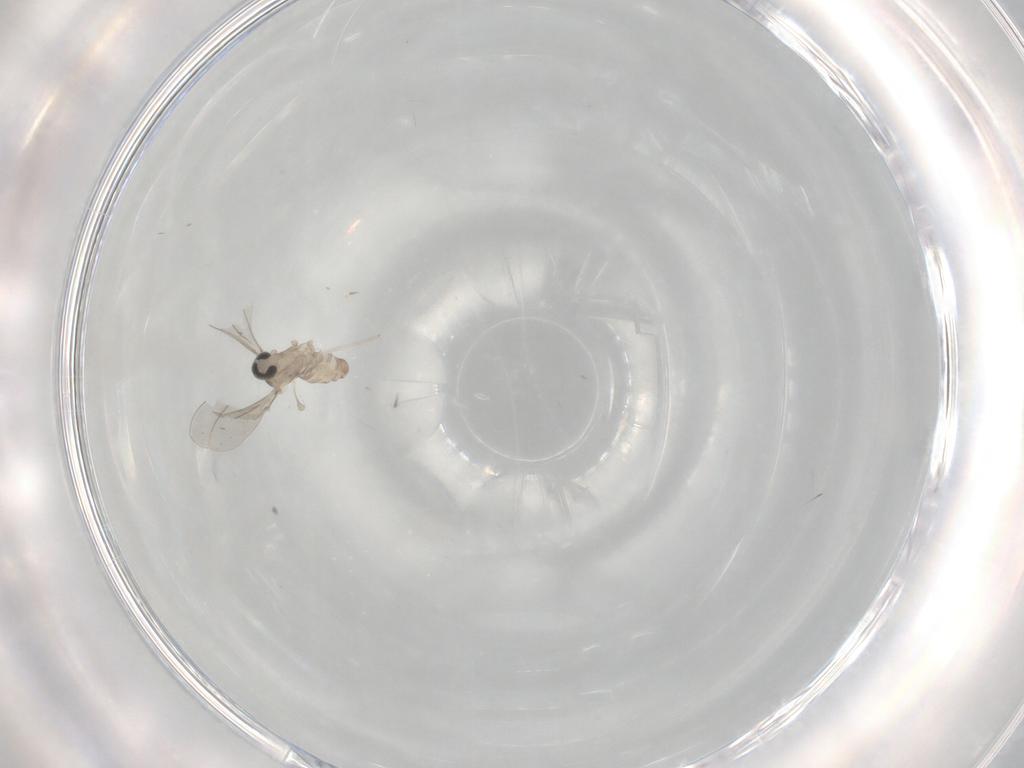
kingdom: Animalia
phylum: Arthropoda
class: Insecta
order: Diptera
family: Cecidomyiidae
